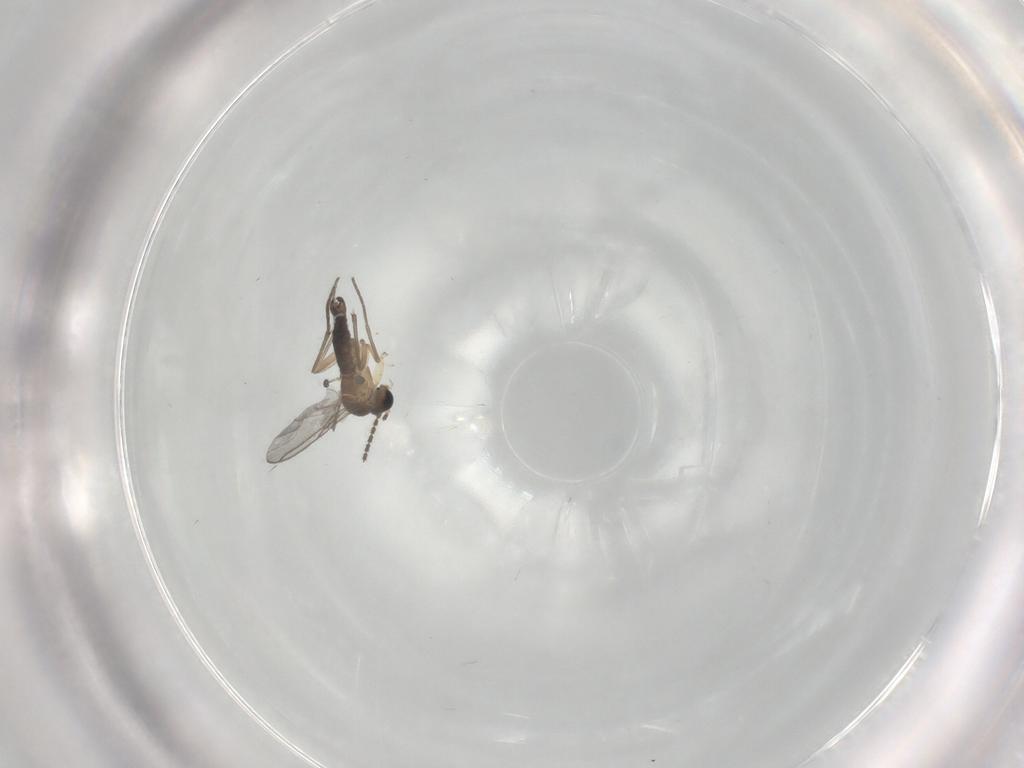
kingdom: Animalia
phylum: Arthropoda
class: Insecta
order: Diptera
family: Sciaridae
